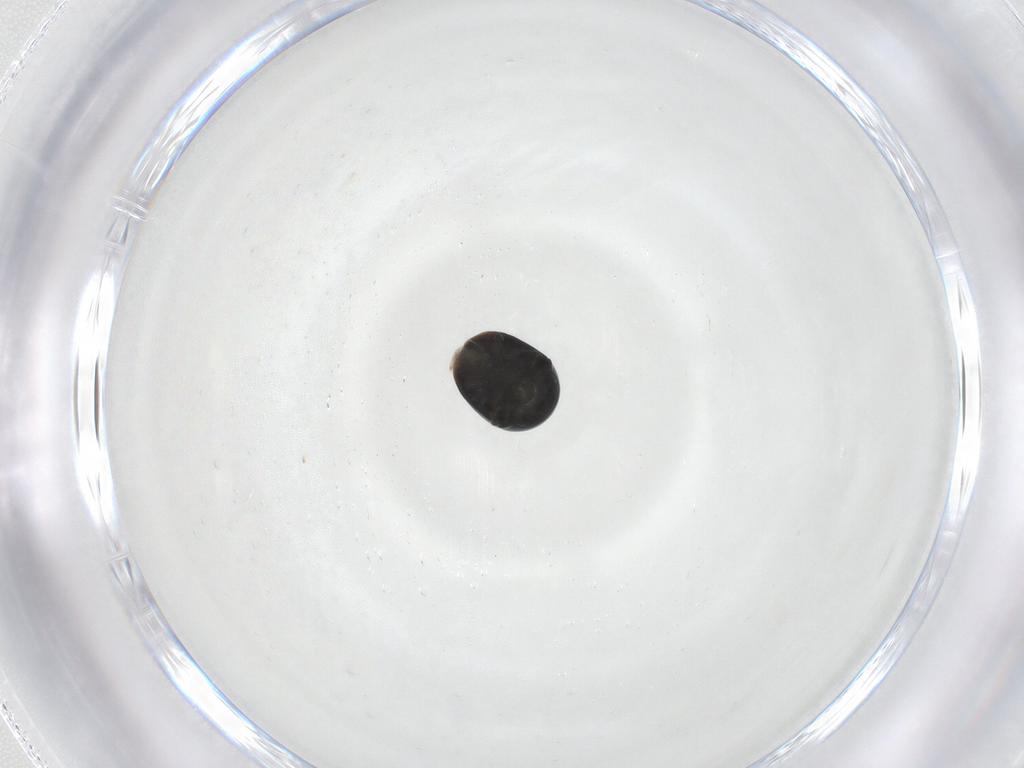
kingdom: Animalia
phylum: Arthropoda
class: Insecta
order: Coleoptera
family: Cybocephalidae
